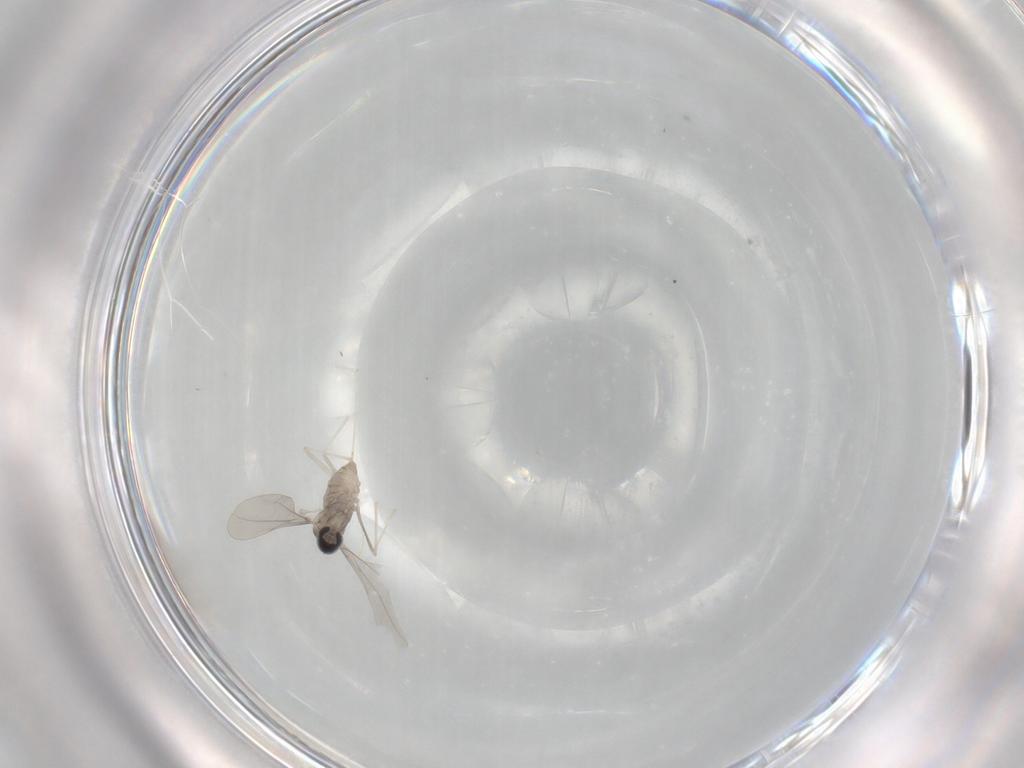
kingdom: Animalia
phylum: Arthropoda
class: Insecta
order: Diptera
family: Cecidomyiidae
